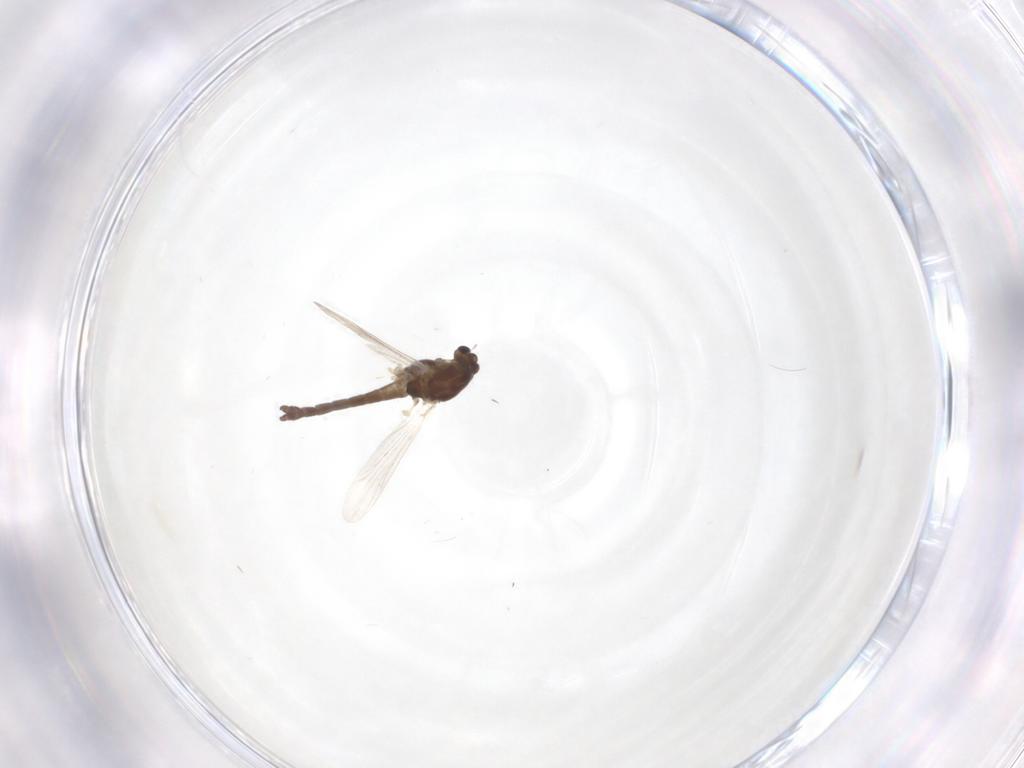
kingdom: Animalia
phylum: Arthropoda
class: Insecta
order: Diptera
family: Chironomidae
